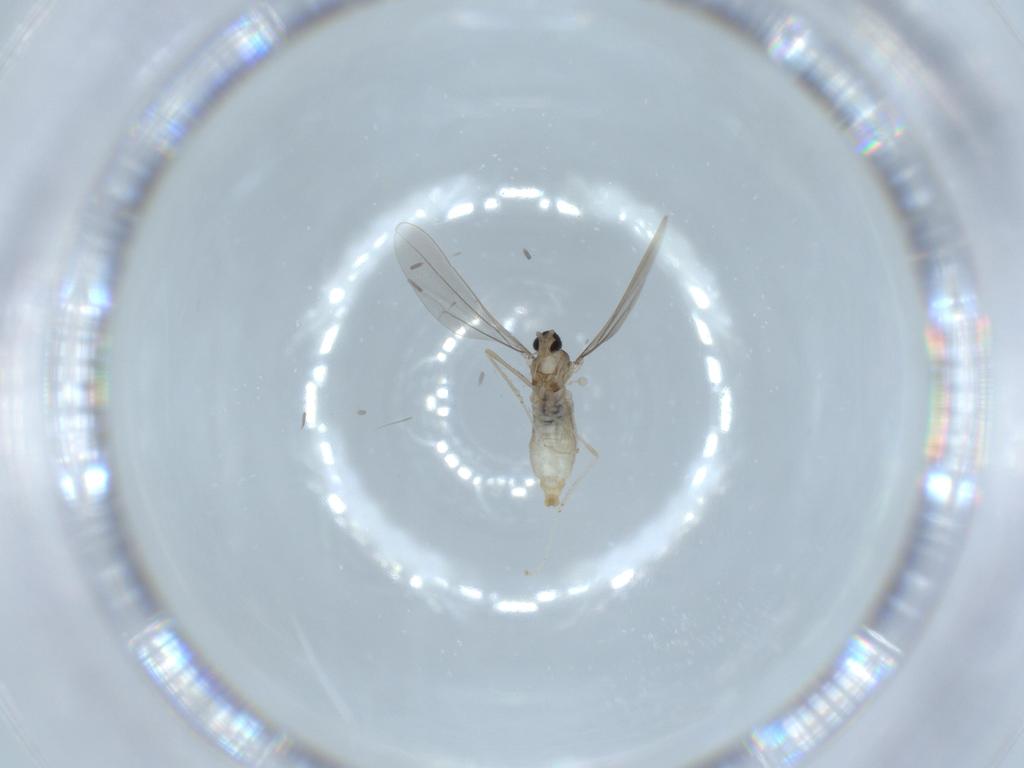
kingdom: Animalia
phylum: Arthropoda
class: Insecta
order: Diptera
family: Cecidomyiidae
